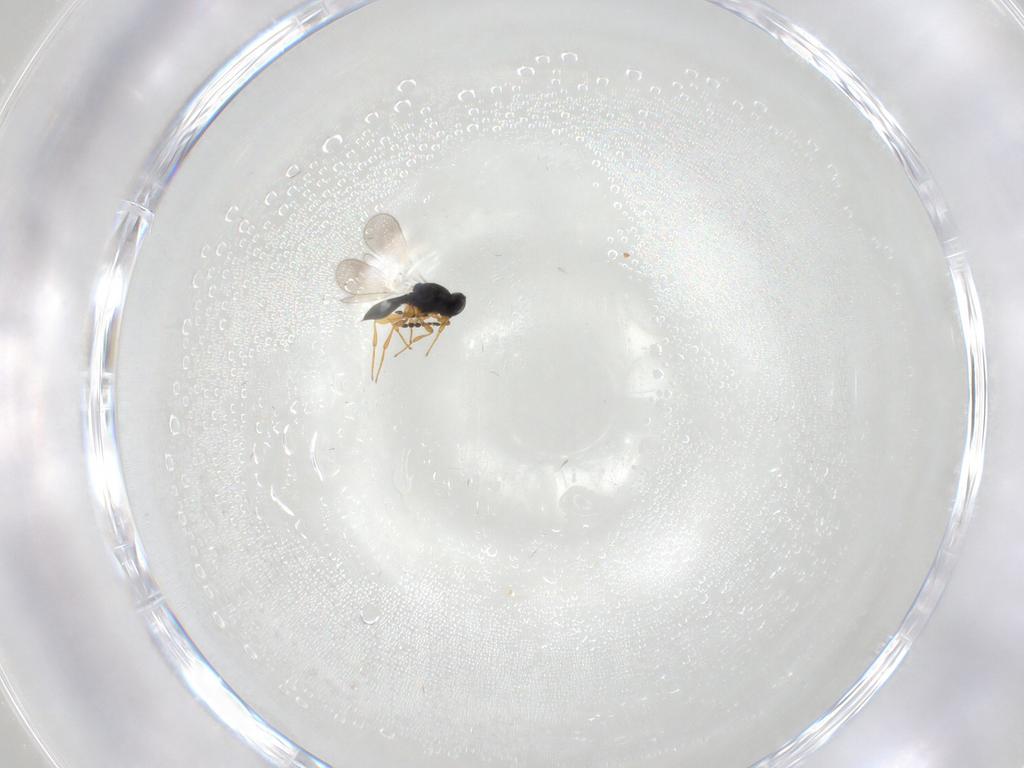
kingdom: Animalia
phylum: Arthropoda
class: Insecta
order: Hymenoptera
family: Platygastridae
